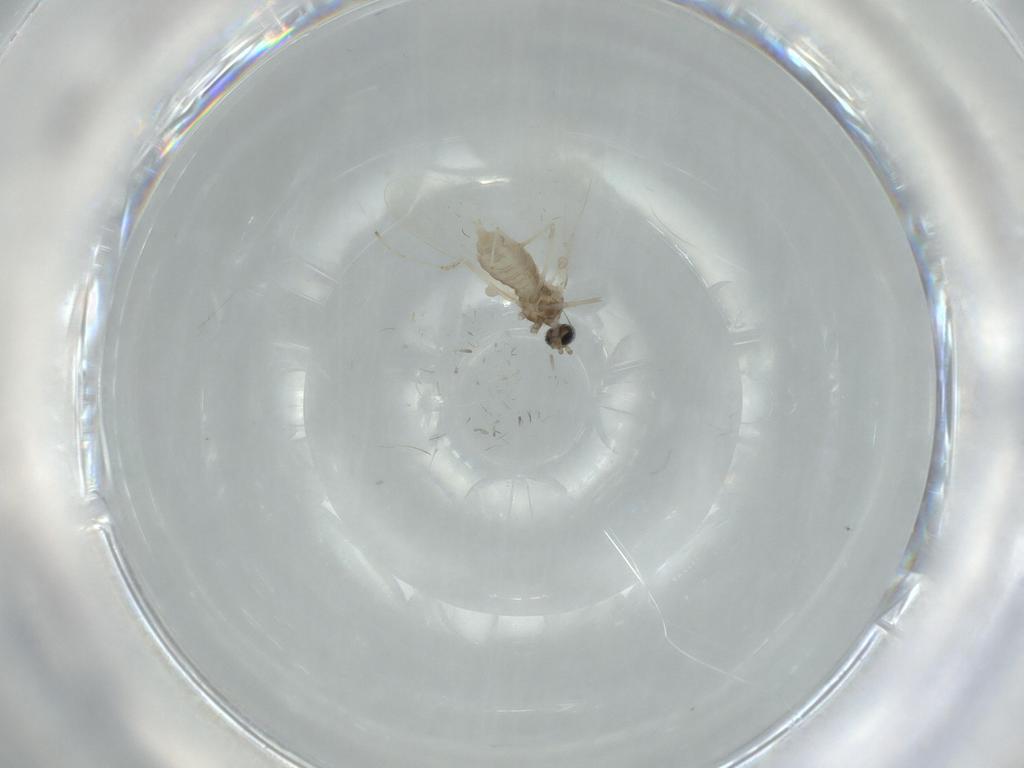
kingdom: Animalia
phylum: Arthropoda
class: Insecta
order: Diptera
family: Cecidomyiidae
